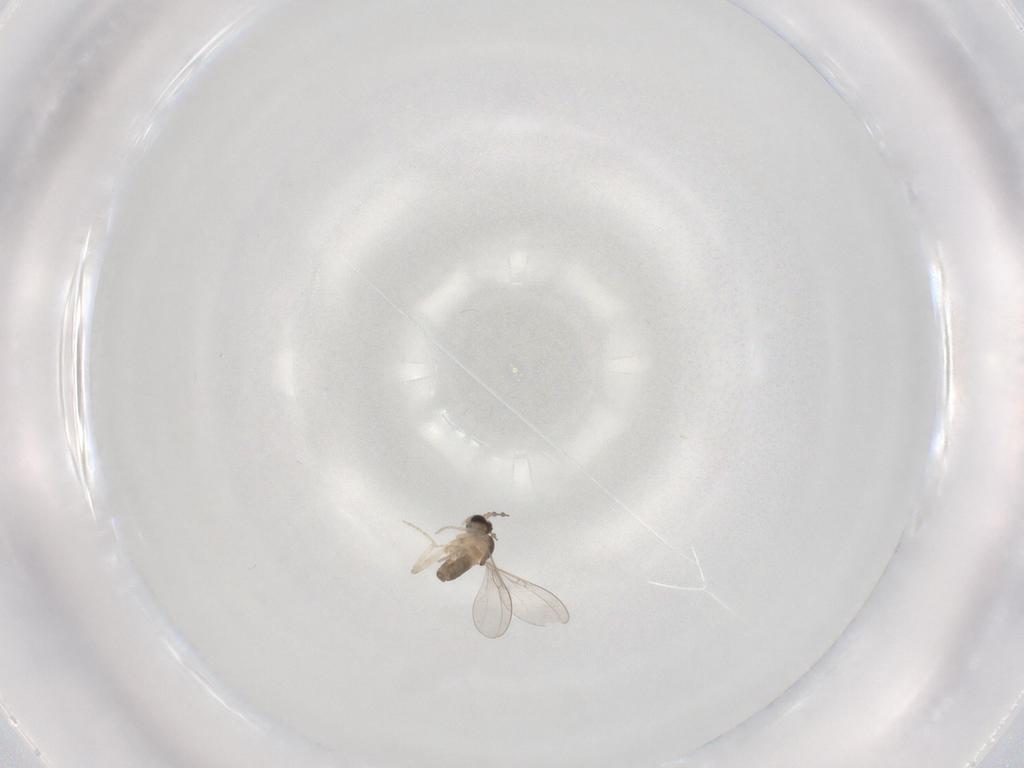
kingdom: Animalia
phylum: Arthropoda
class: Insecta
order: Diptera
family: Cecidomyiidae
